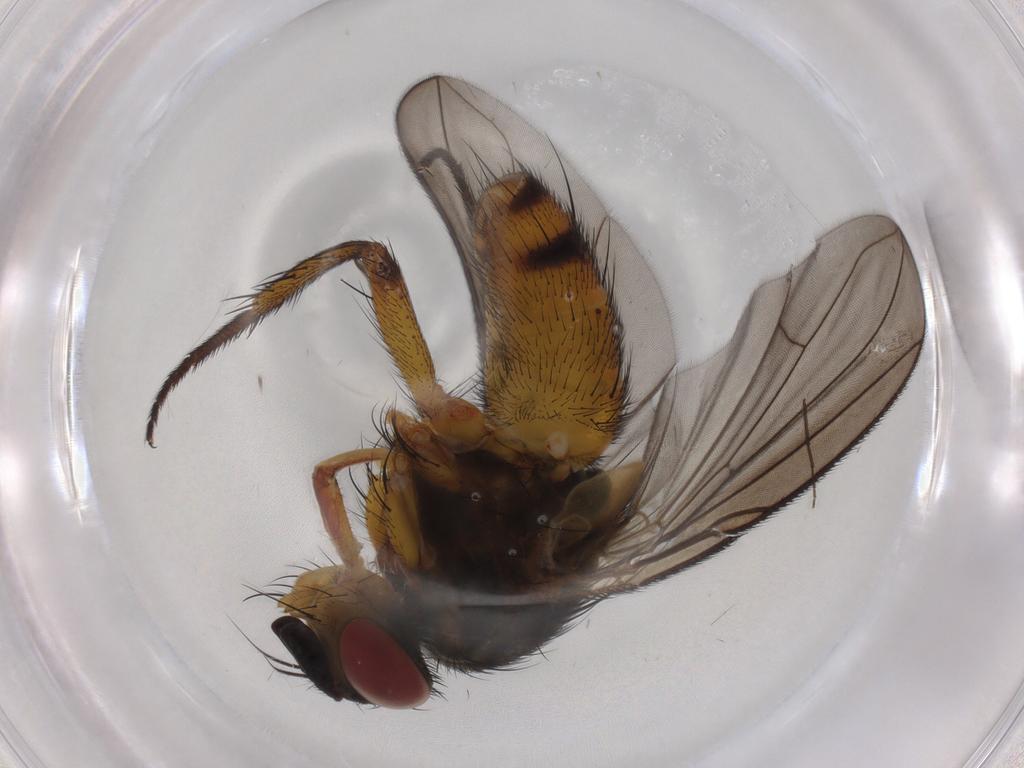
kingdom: Animalia
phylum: Arthropoda
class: Insecta
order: Diptera
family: Tachinidae
